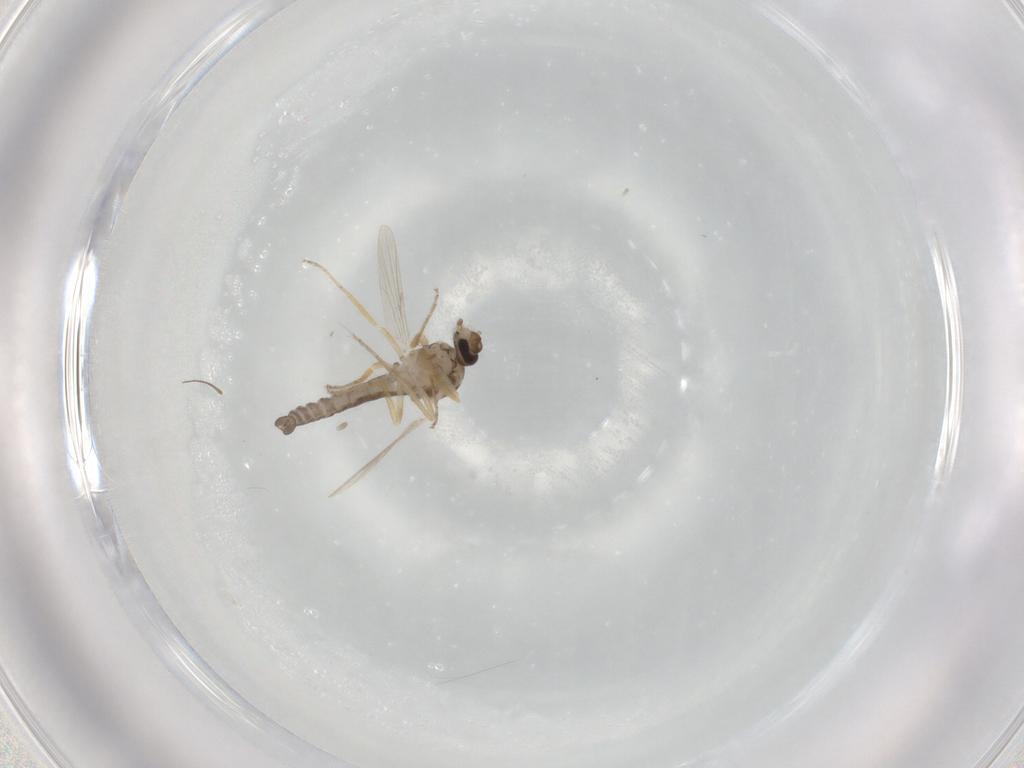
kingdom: Animalia
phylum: Arthropoda
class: Insecta
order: Diptera
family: Ceratopogonidae
